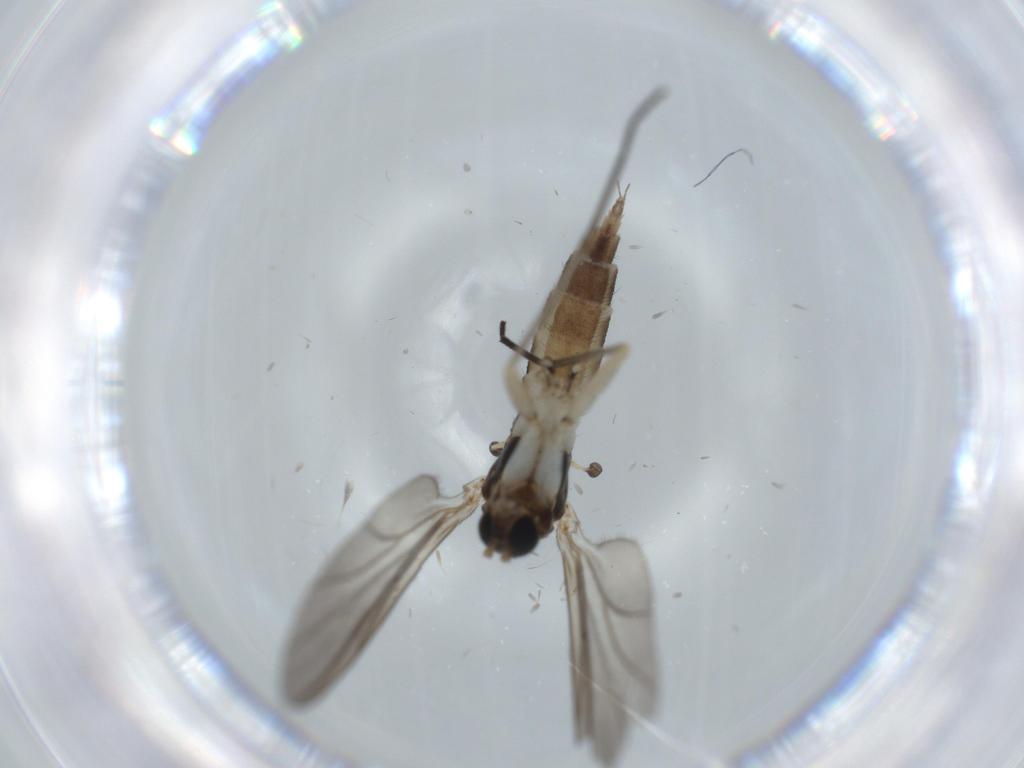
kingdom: Animalia
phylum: Arthropoda
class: Insecta
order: Diptera
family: Sciaridae
